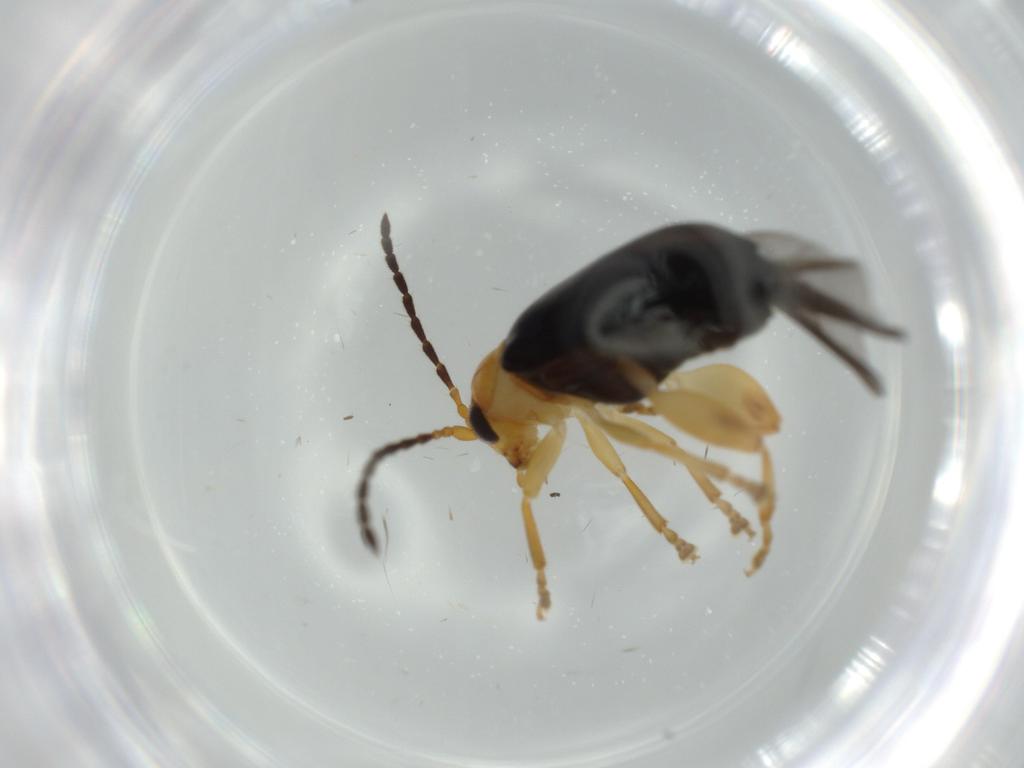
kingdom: Animalia
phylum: Arthropoda
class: Insecta
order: Coleoptera
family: Chrysomelidae
